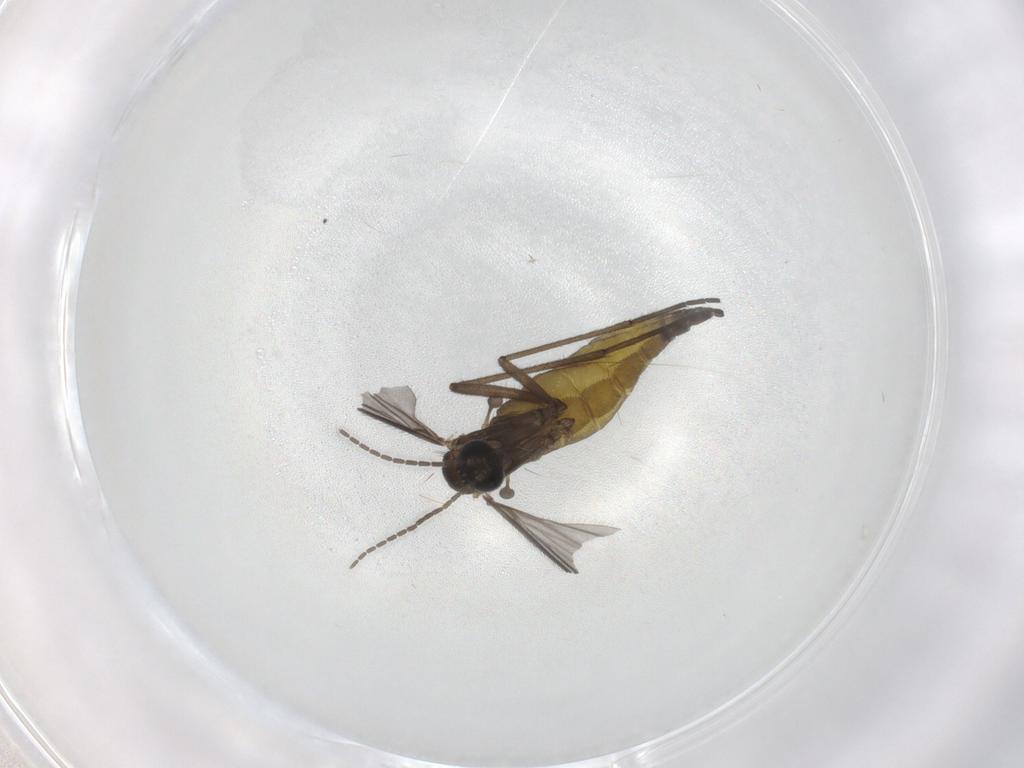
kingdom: Animalia
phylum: Arthropoda
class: Insecta
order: Diptera
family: Sciaridae
